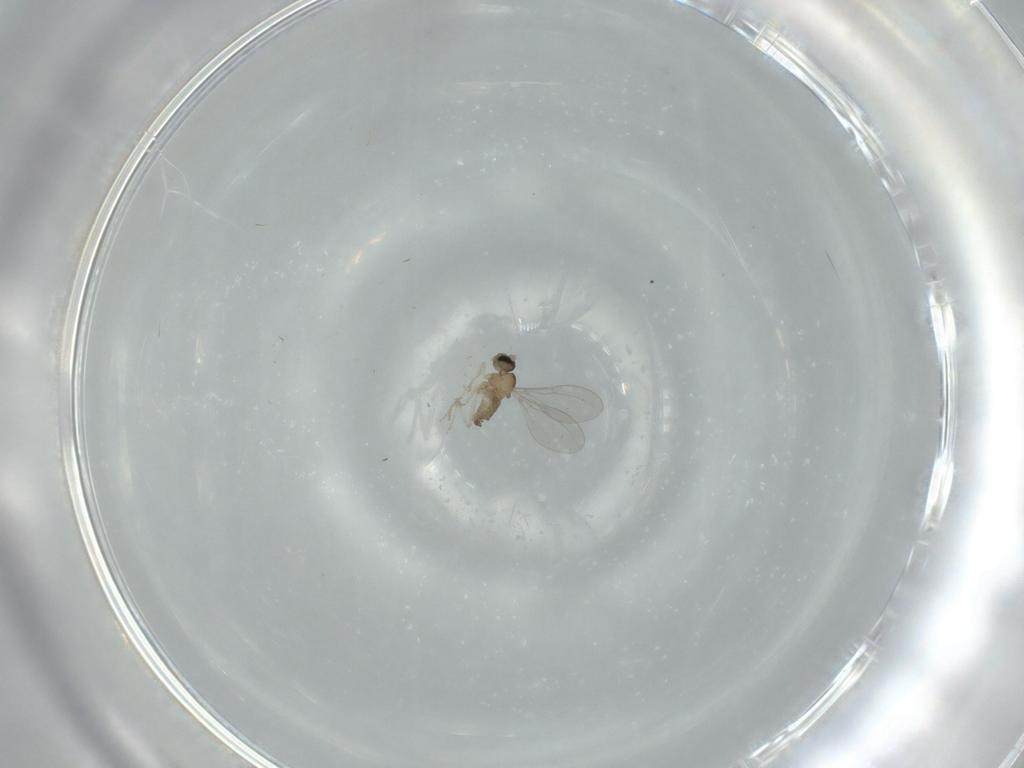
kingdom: Animalia
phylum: Arthropoda
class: Insecta
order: Diptera
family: Cecidomyiidae
